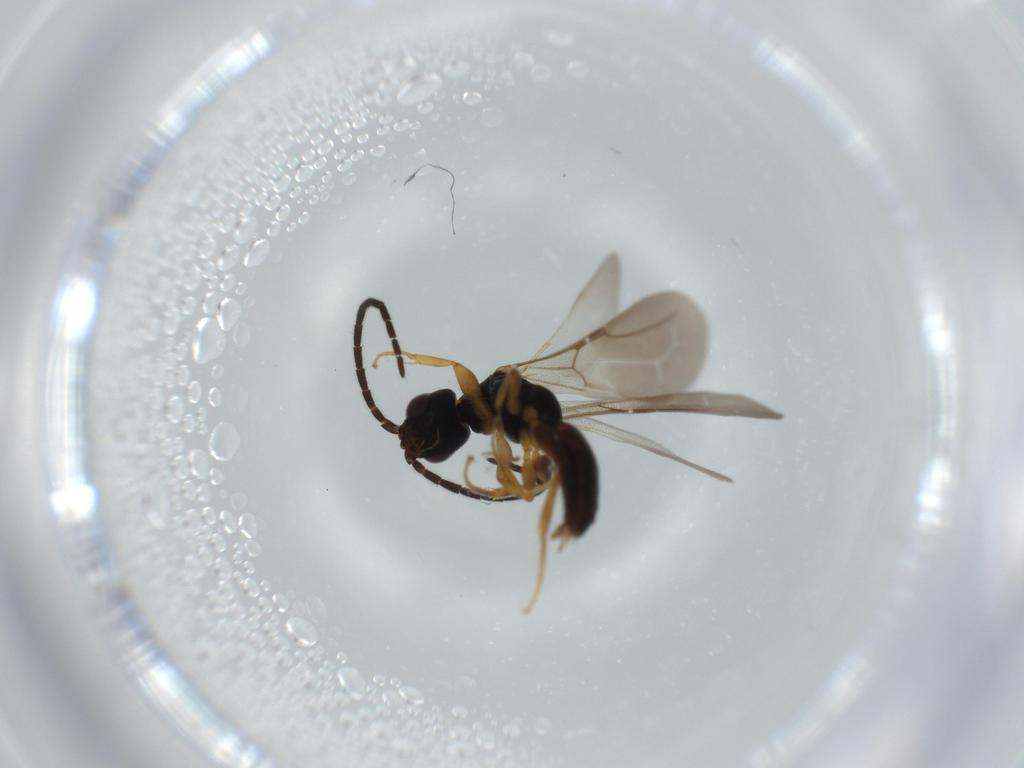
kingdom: Animalia
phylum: Arthropoda
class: Insecta
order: Hymenoptera
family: Bethylidae
